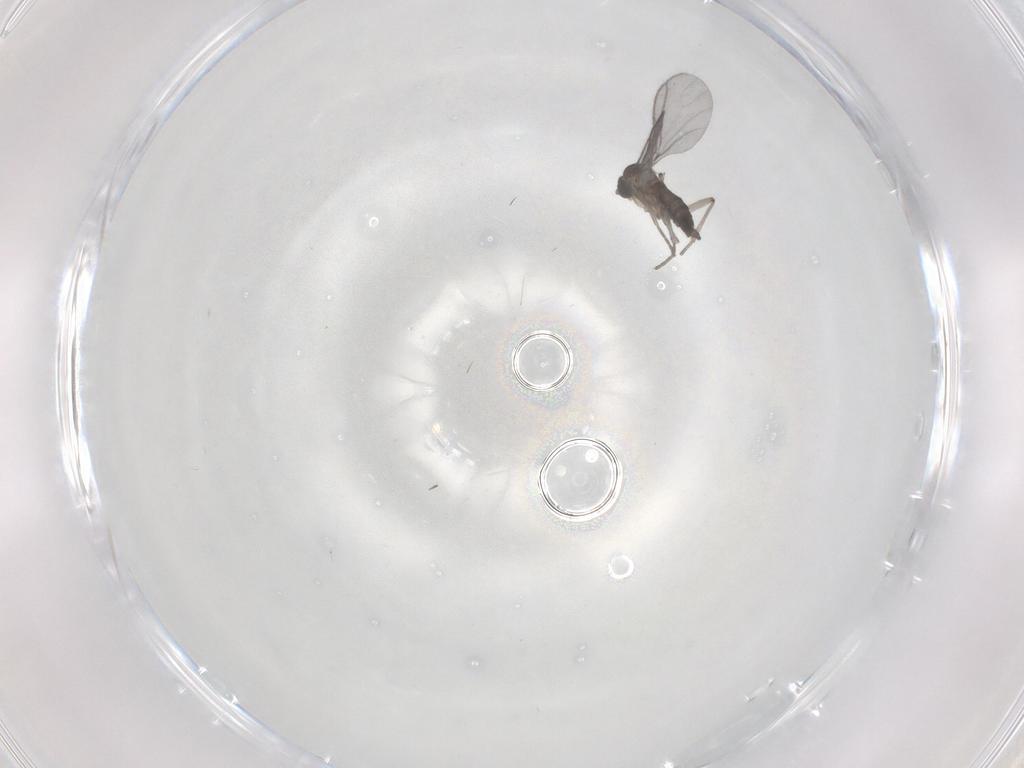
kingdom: Animalia
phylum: Arthropoda
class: Insecta
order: Diptera
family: Sciaridae
